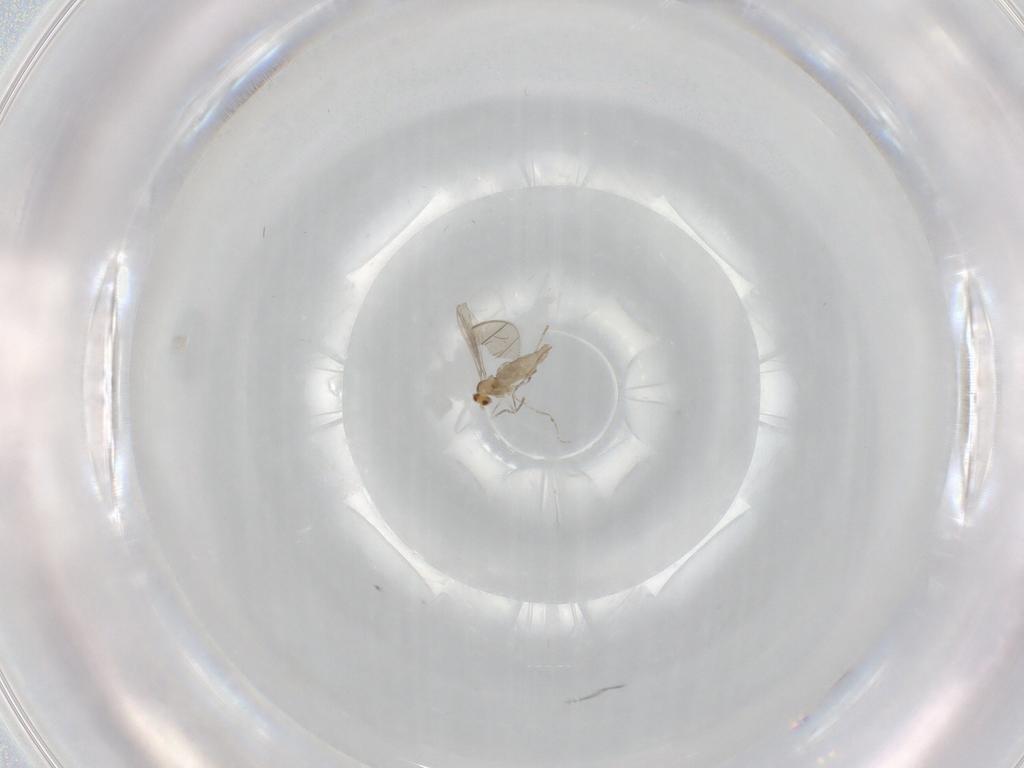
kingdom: Animalia
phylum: Arthropoda
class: Insecta
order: Diptera
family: Cecidomyiidae
